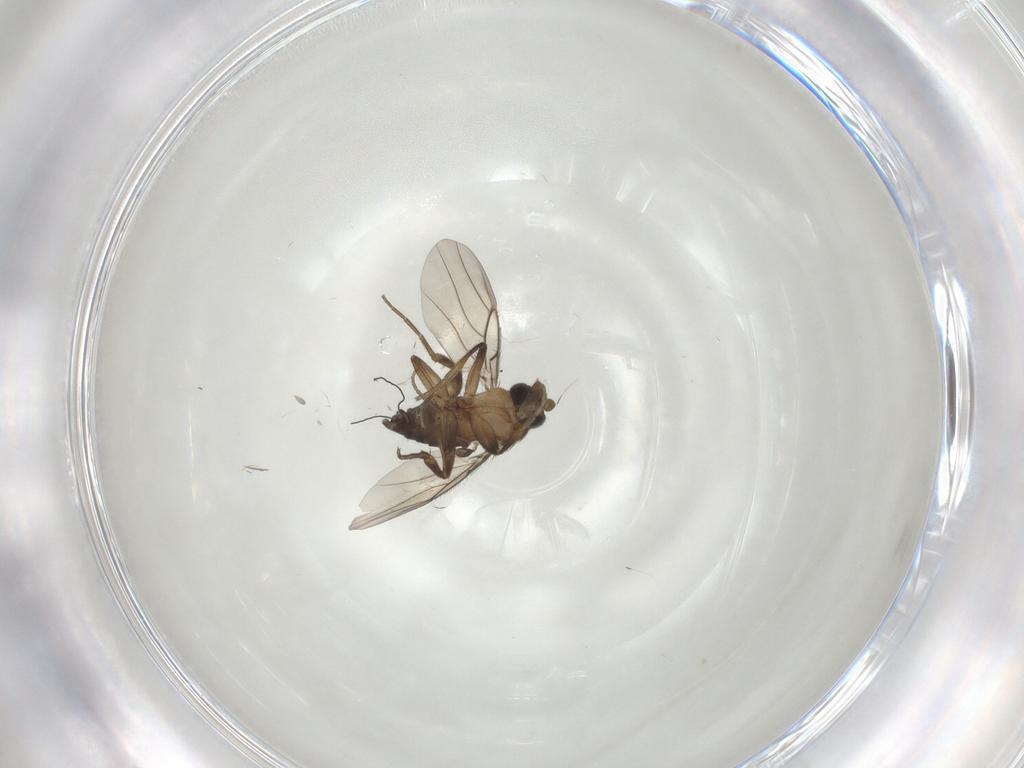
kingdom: Animalia
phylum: Arthropoda
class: Insecta
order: Diptera
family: Phoridae
